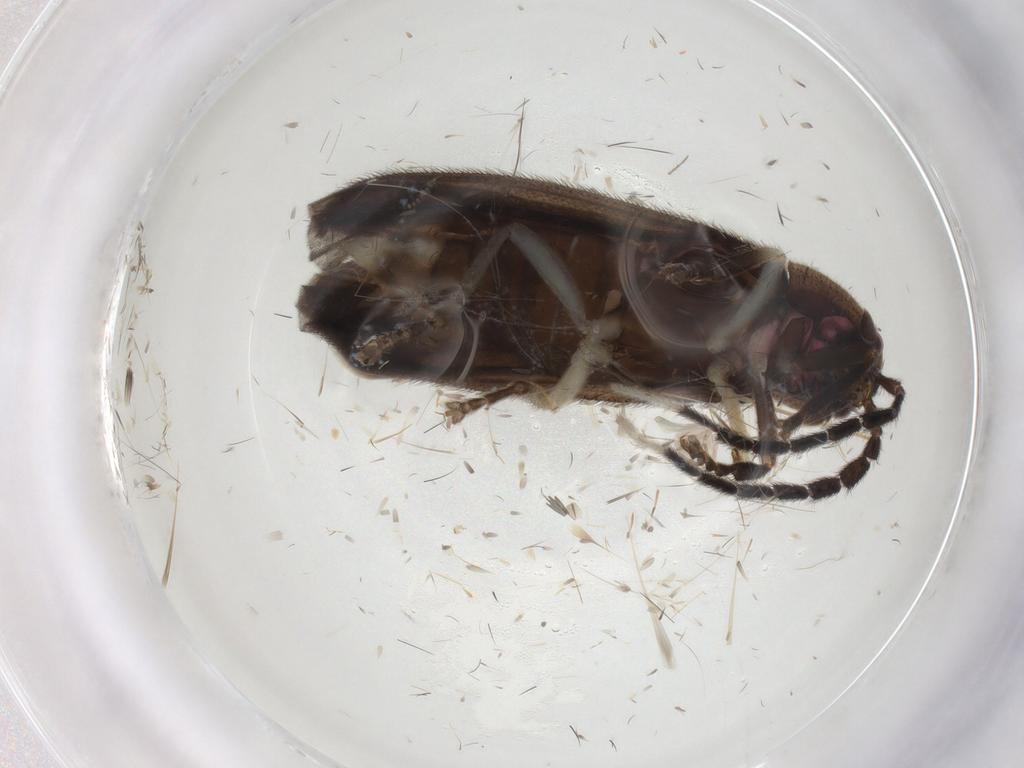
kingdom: Animalia
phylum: Arthropoda
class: Insecta
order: Coleoptera
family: Lampyridae
